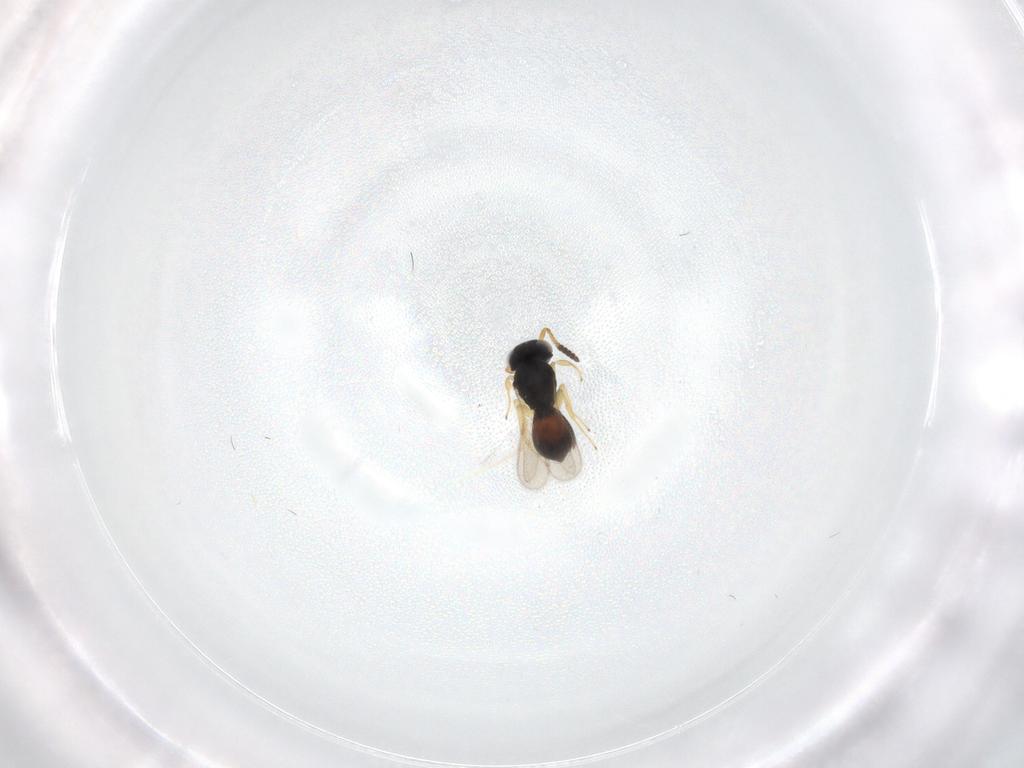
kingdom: Animalia
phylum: Arthropoda
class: Insecta
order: Hymenoptera
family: Scelionidae
